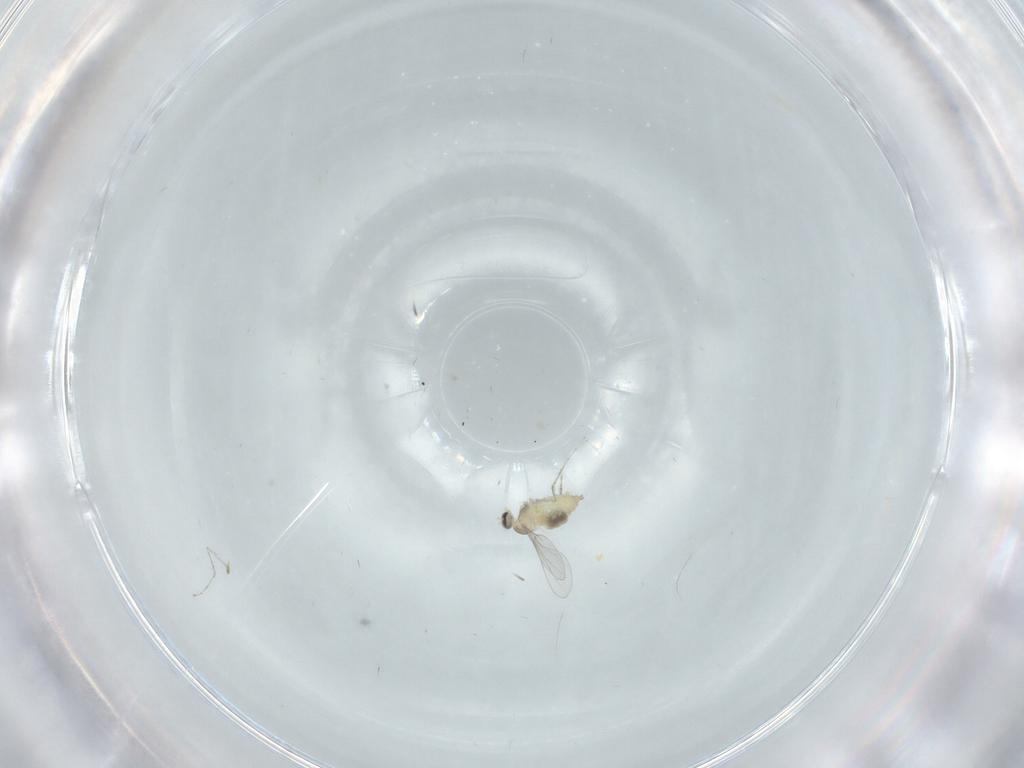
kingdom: Animalia
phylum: Arthropoda
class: Insecta
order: Diptera
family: Cecidomyiidae
